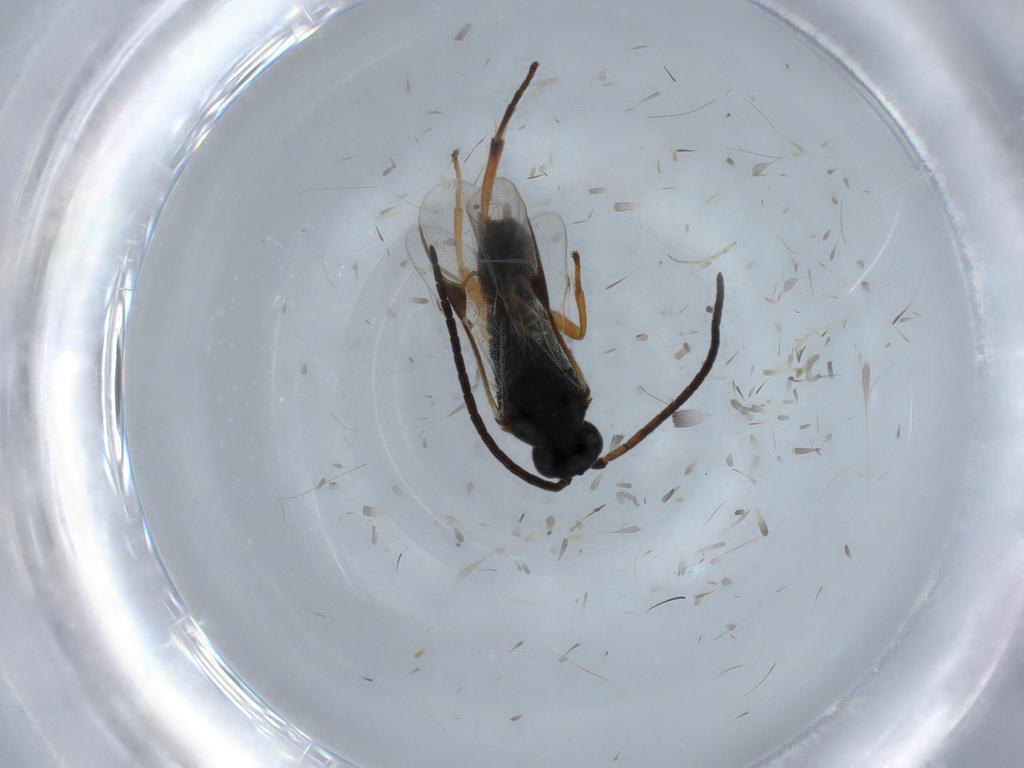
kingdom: Animalia
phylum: Arthropoda
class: Insecta
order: Hymenoptera
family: Braconidae
